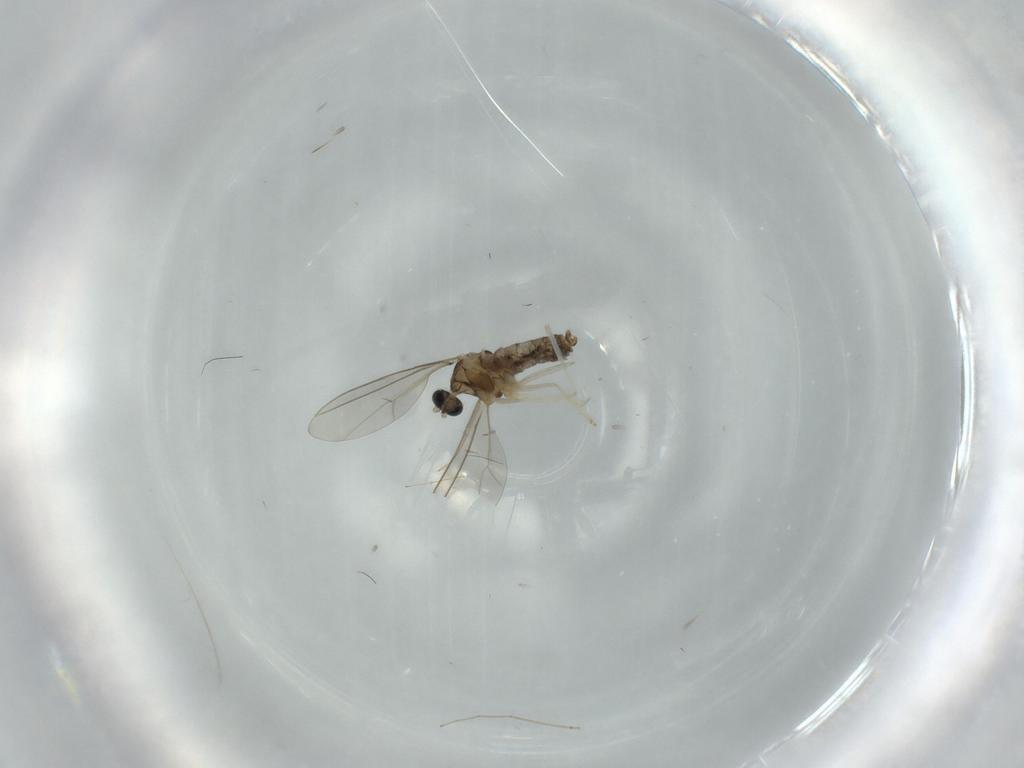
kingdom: Animalia
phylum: Arthropoda
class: Insecta
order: Diptera
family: Cecidomyiidae
